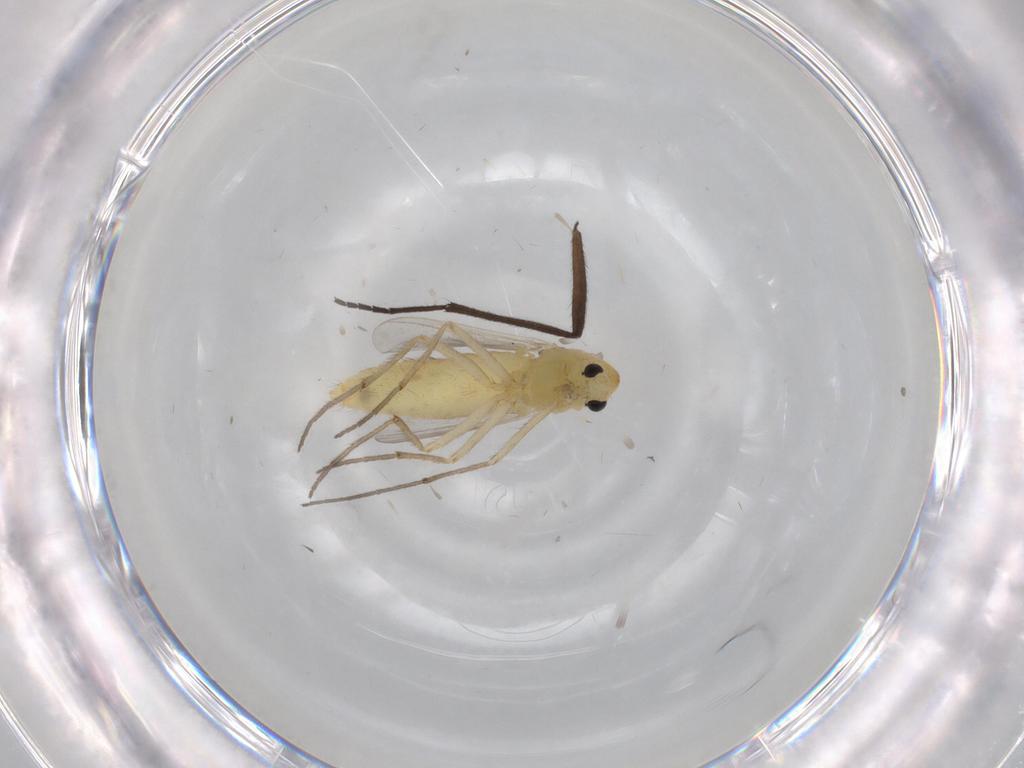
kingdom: Animalia
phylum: Arthropoda
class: Insecta
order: Diptera
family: Chironomidae
